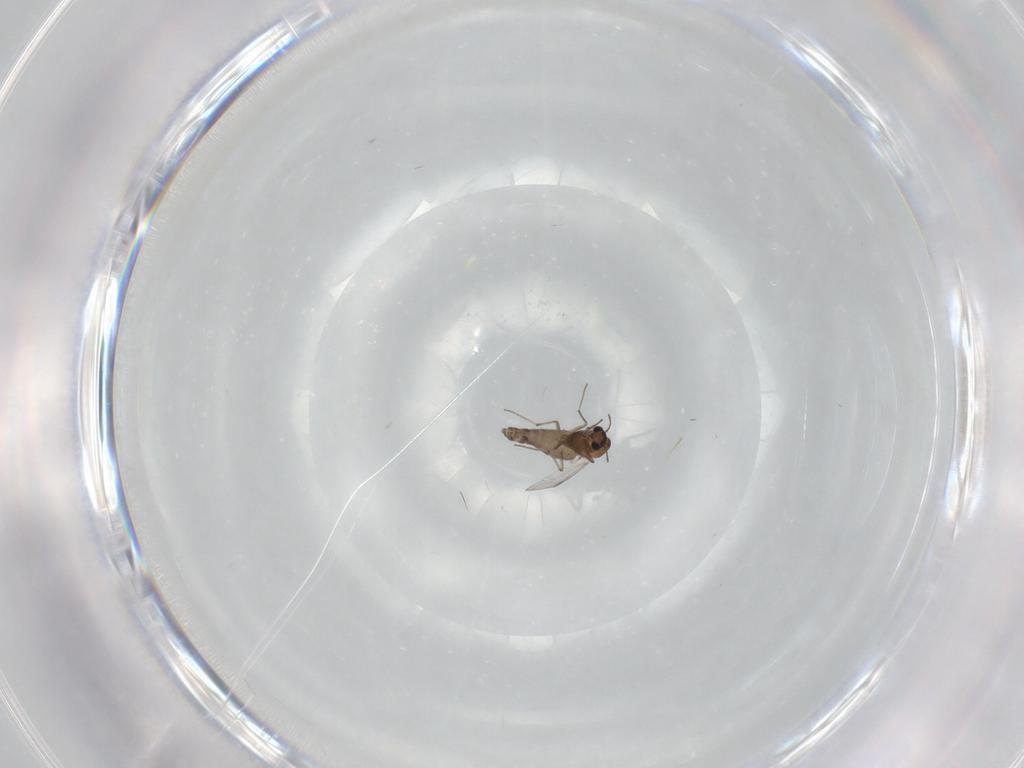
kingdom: Animalia
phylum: Arthropoda
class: Insecta
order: Diptera
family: Chironomidae
